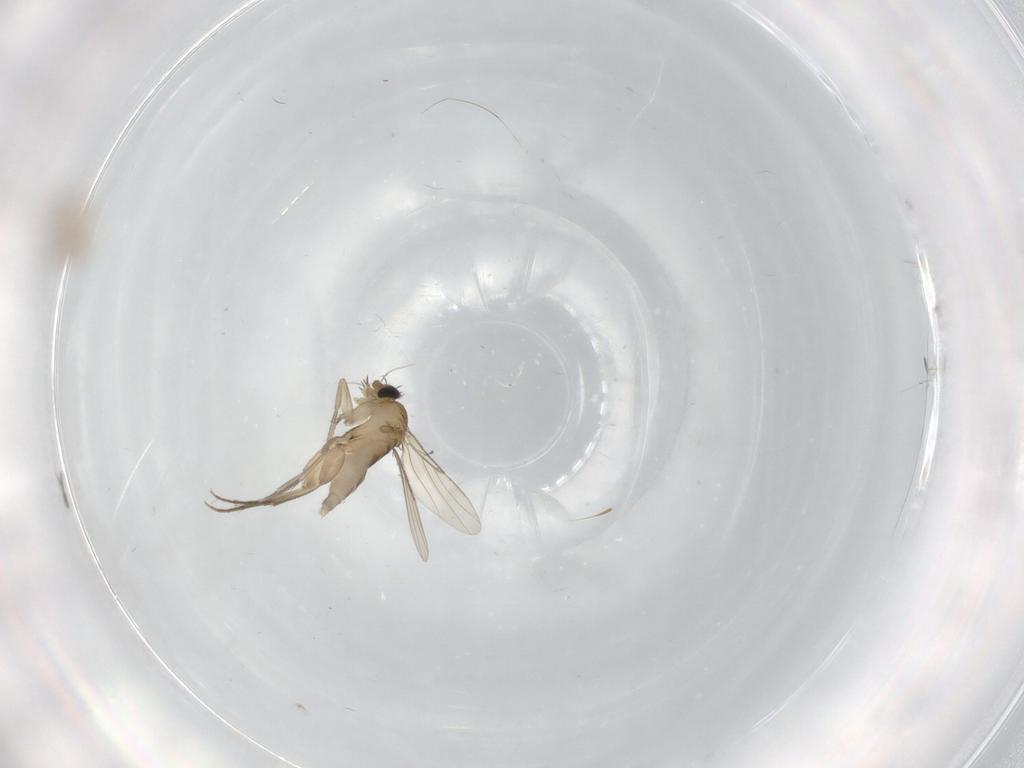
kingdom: Animalia
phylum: Arthropoda
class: Insecta
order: Diptera
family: Cecidomyiidae
